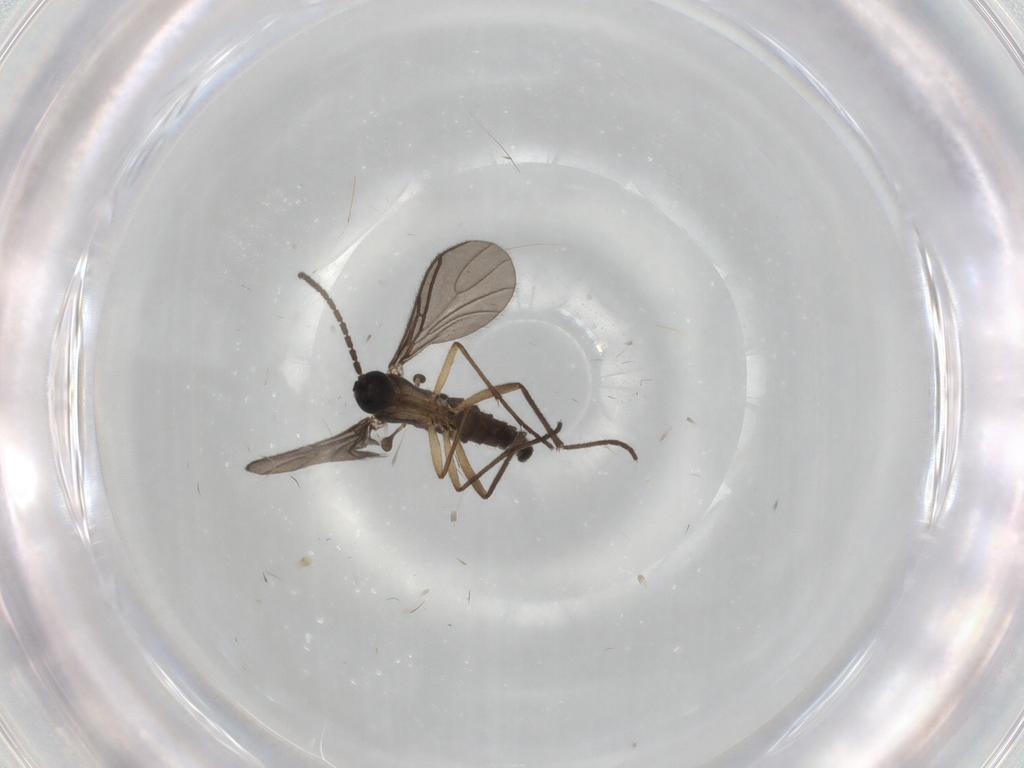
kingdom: Animalia
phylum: Arthropoda
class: Insecta
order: Diptera
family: Sciaridae
